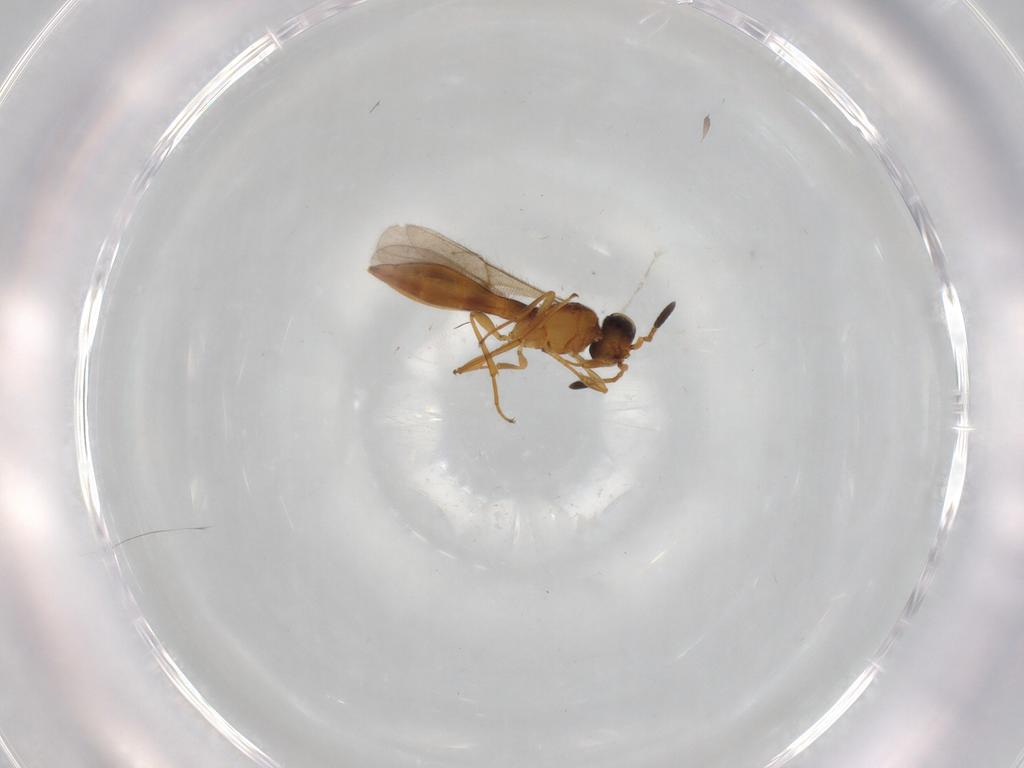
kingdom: Animalia
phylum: Arthropoda
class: Insecta
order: Hymenoptera
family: Scelionidae
